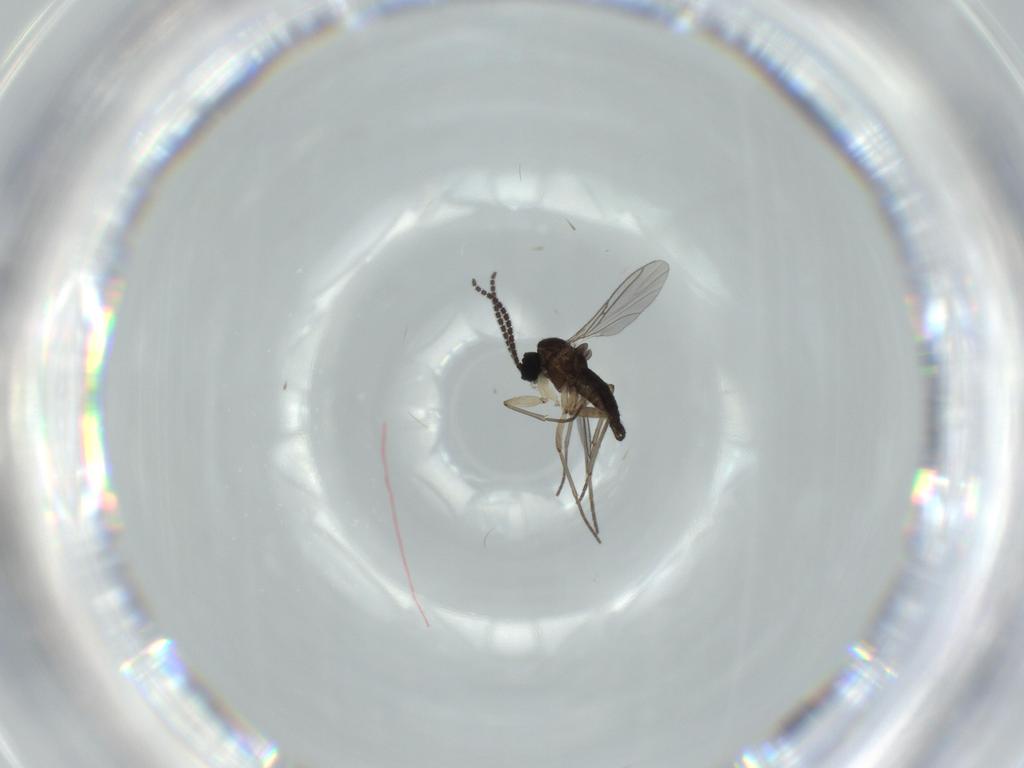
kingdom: Animalia
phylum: Arthropoda
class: Insecta
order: Diptera
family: Sciaridae
